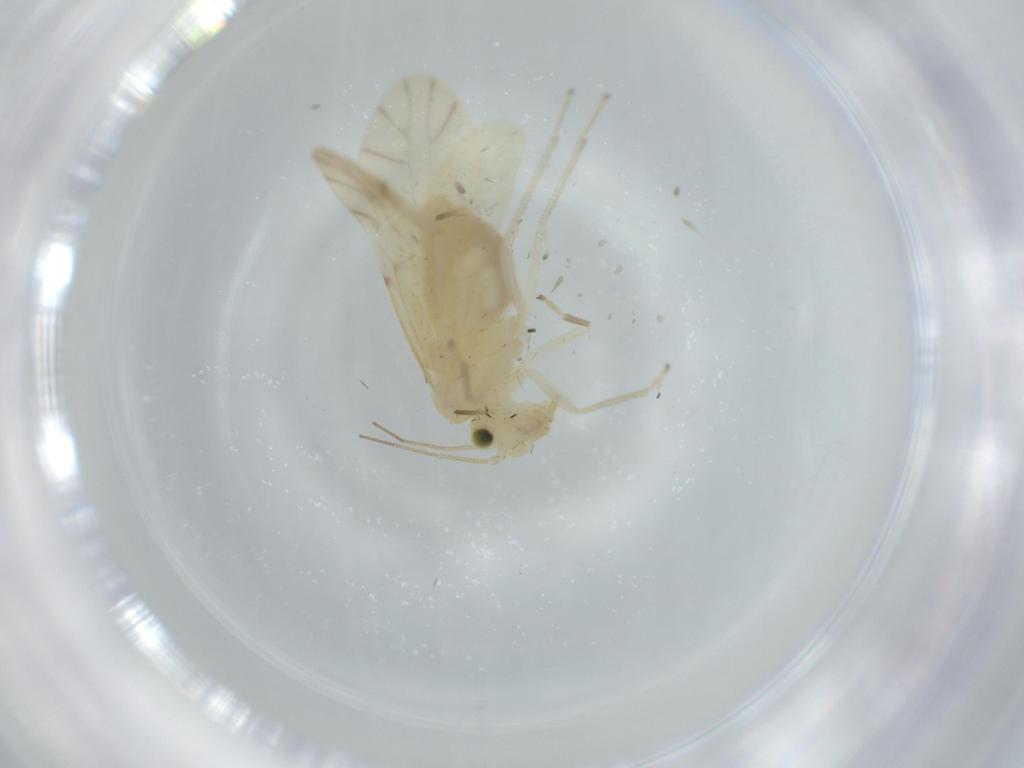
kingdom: Animalia
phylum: Arthropoda
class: Insecta
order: Psocodea
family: Caeciliusidae
